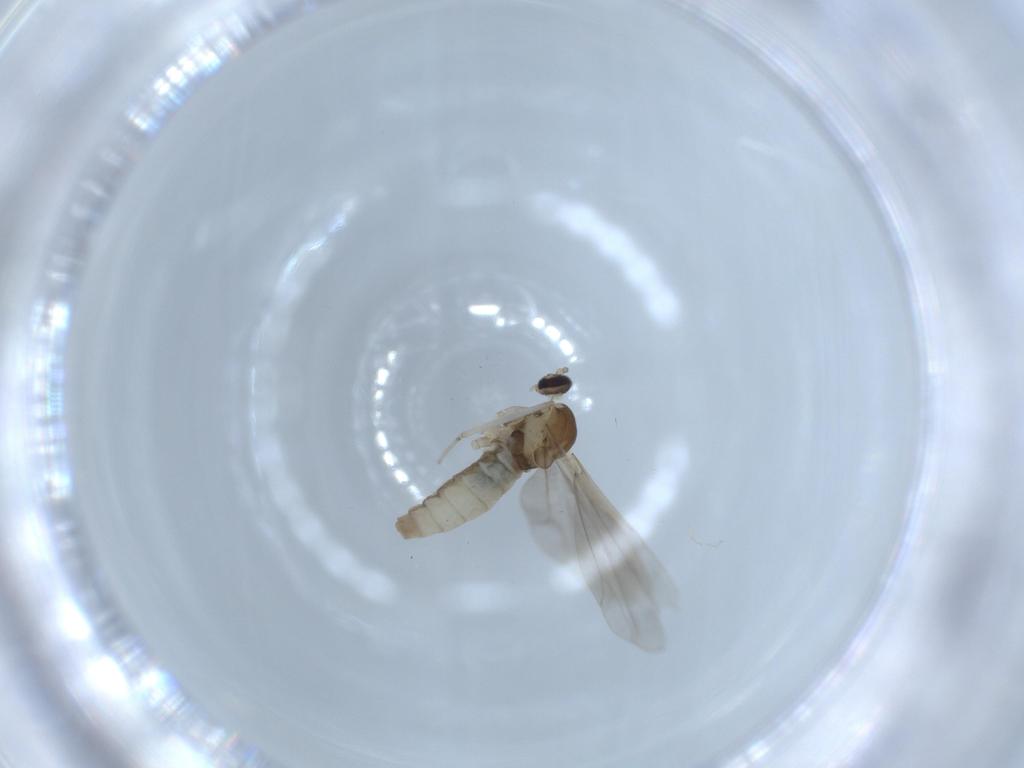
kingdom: Animalia
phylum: Arthropoda
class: Insecta
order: Diptera
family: Cecidomyiidae
